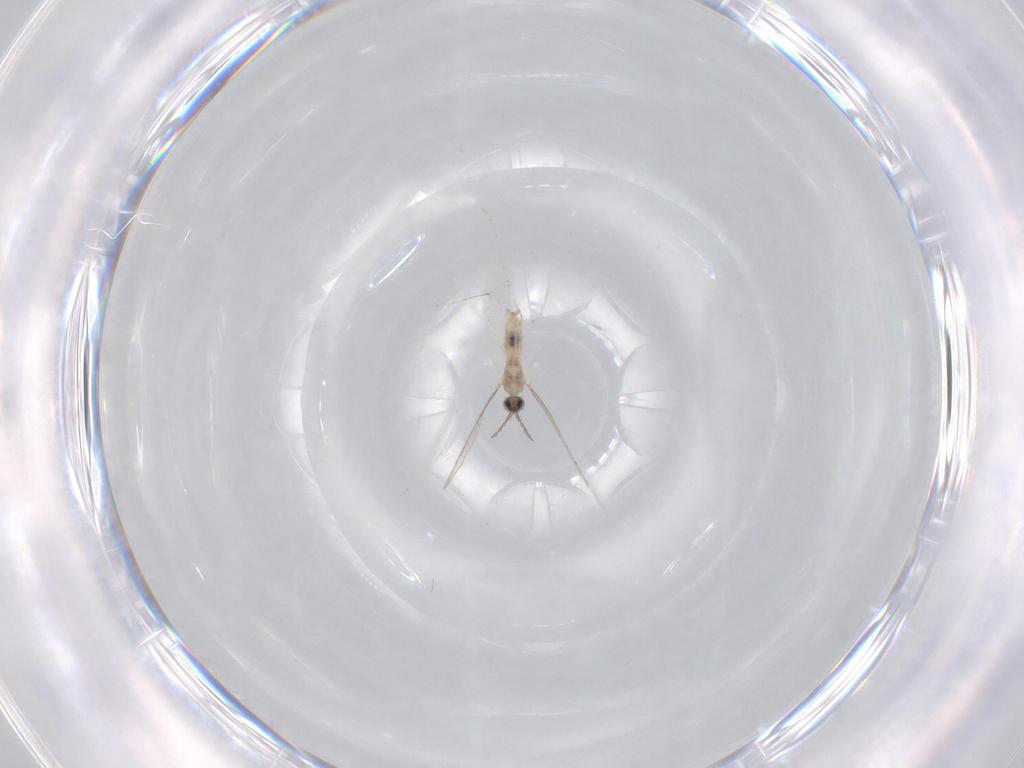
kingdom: Animalia
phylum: Arthropoda
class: Insecta
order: Diptera
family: Cecidomyiidae
